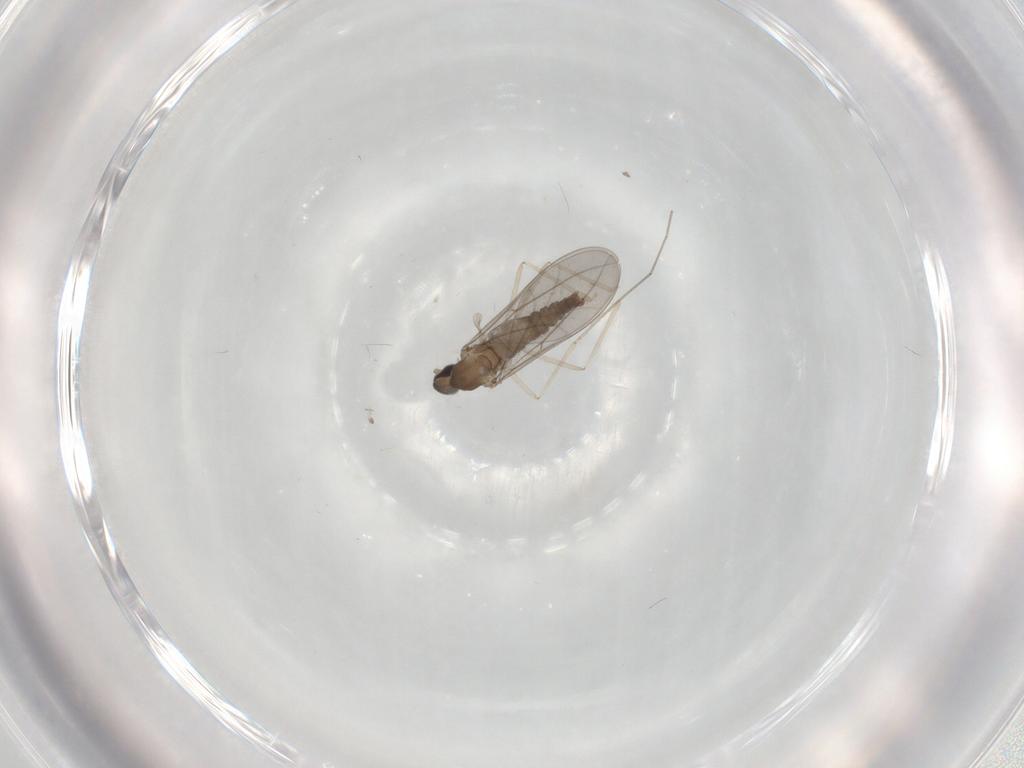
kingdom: Animalia
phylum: Arthropoda
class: Insecta
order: Diptera
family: Cecidomyiidae
